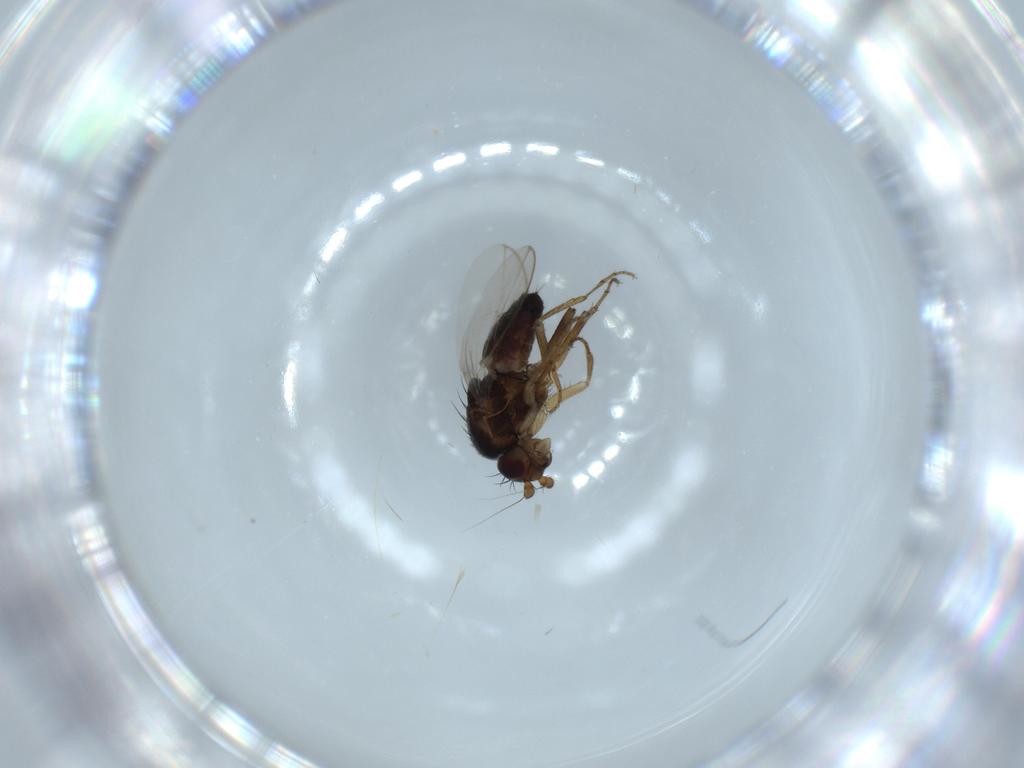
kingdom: Animalia
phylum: Arthropoda
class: Insecta
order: Diptera
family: Sphaeroceridae
